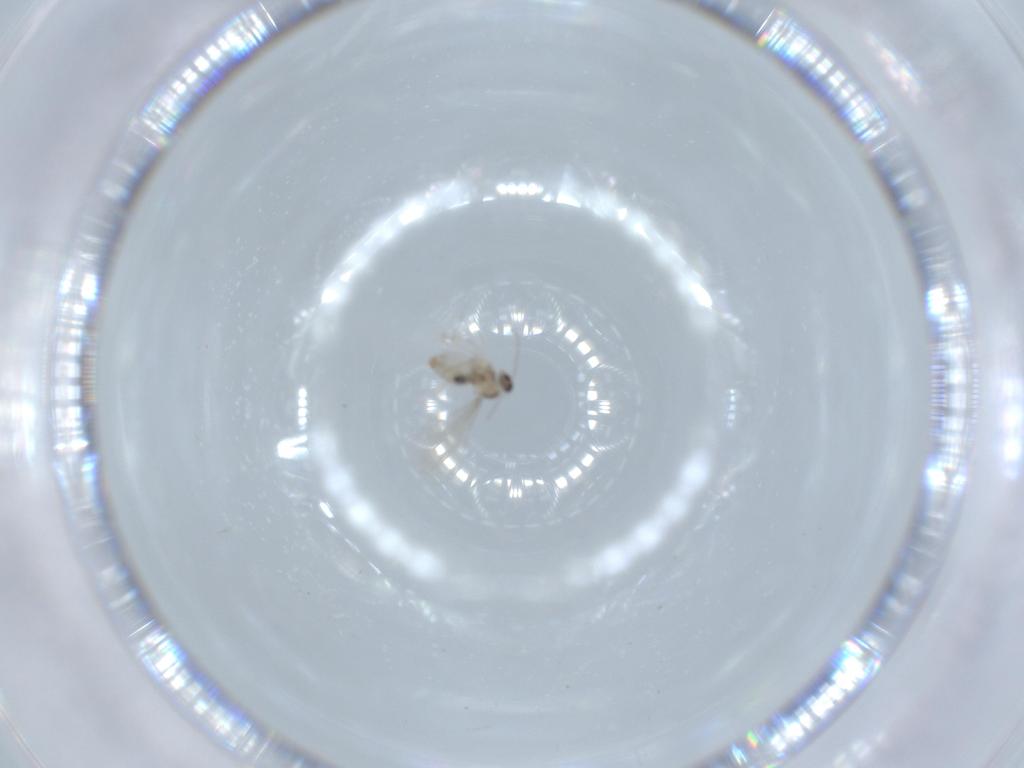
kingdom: Animalia
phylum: Arthropoda
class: Insecta
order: Diptera
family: Cecidomyiidae
